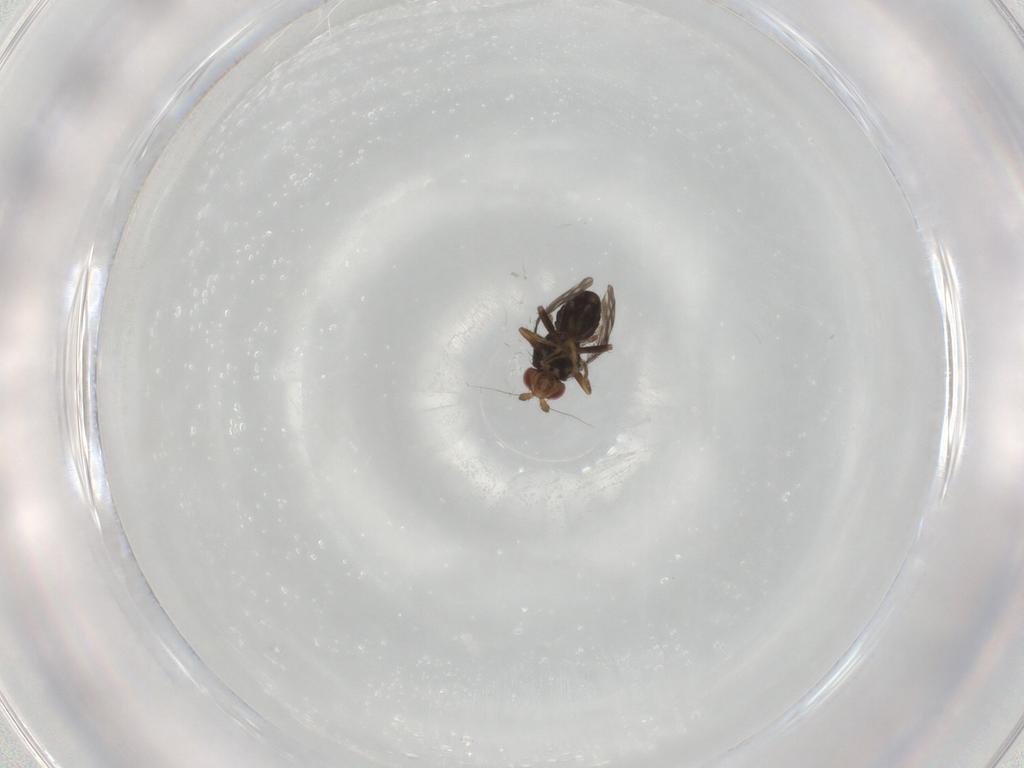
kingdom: Animalia
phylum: Arthropoda
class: Insecta
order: Diptera
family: Sphaeroceridae
